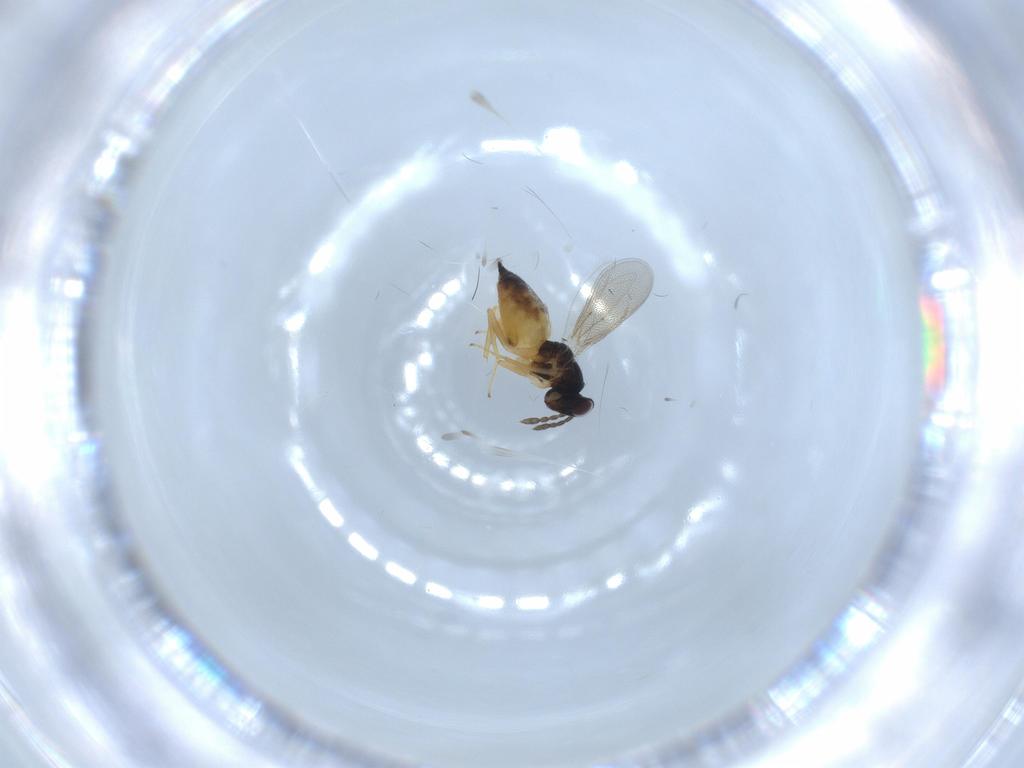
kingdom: Animalia
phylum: Arthropoda
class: Insecta
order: Hymenoptera
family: Eulophidae
